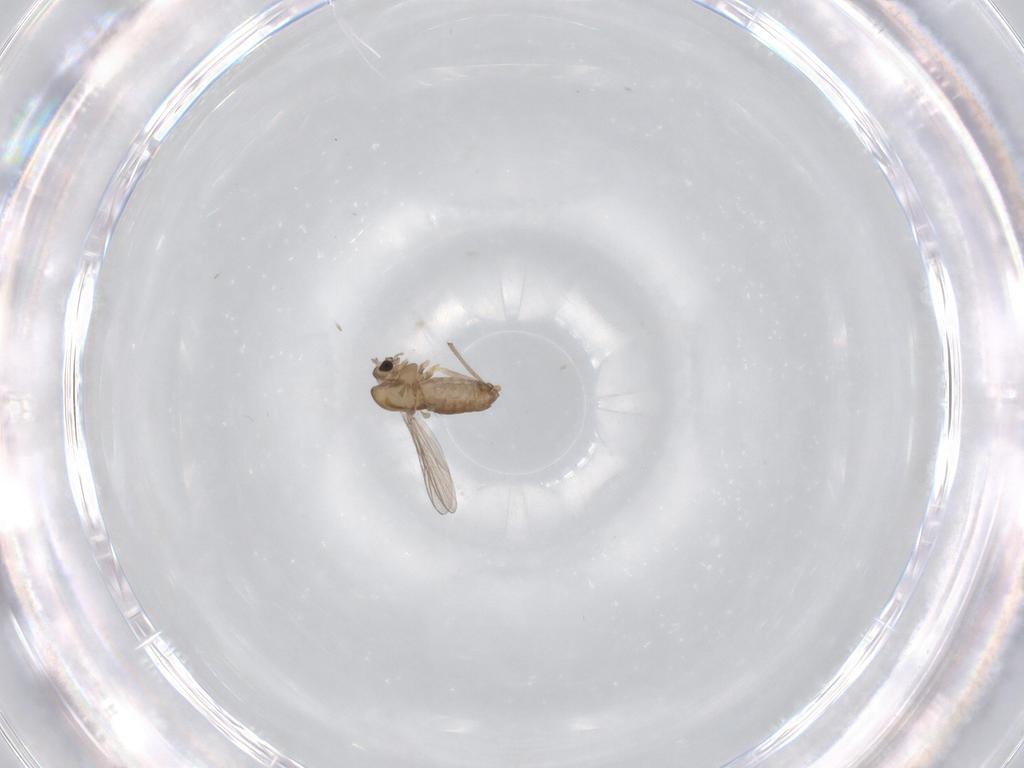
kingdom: Animalia
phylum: Arthropoda
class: Insecta
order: Diptera
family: Chironomidae
